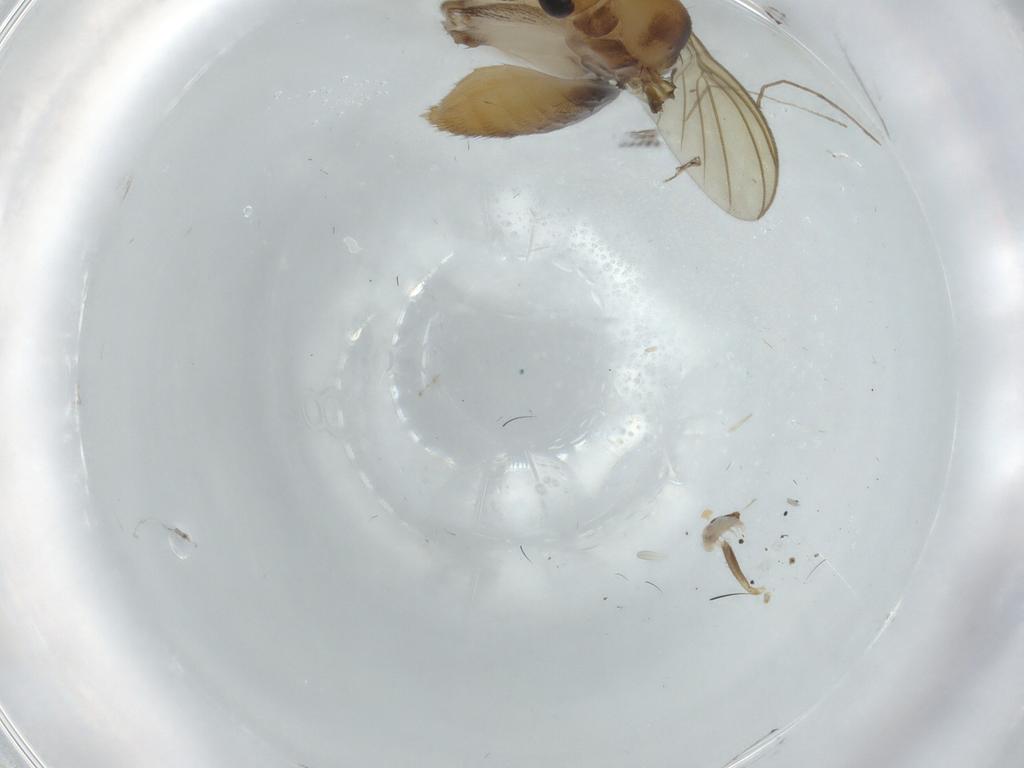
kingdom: Animalia
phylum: Arthropoda
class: Insecta
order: Diptera
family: Chironomidae
